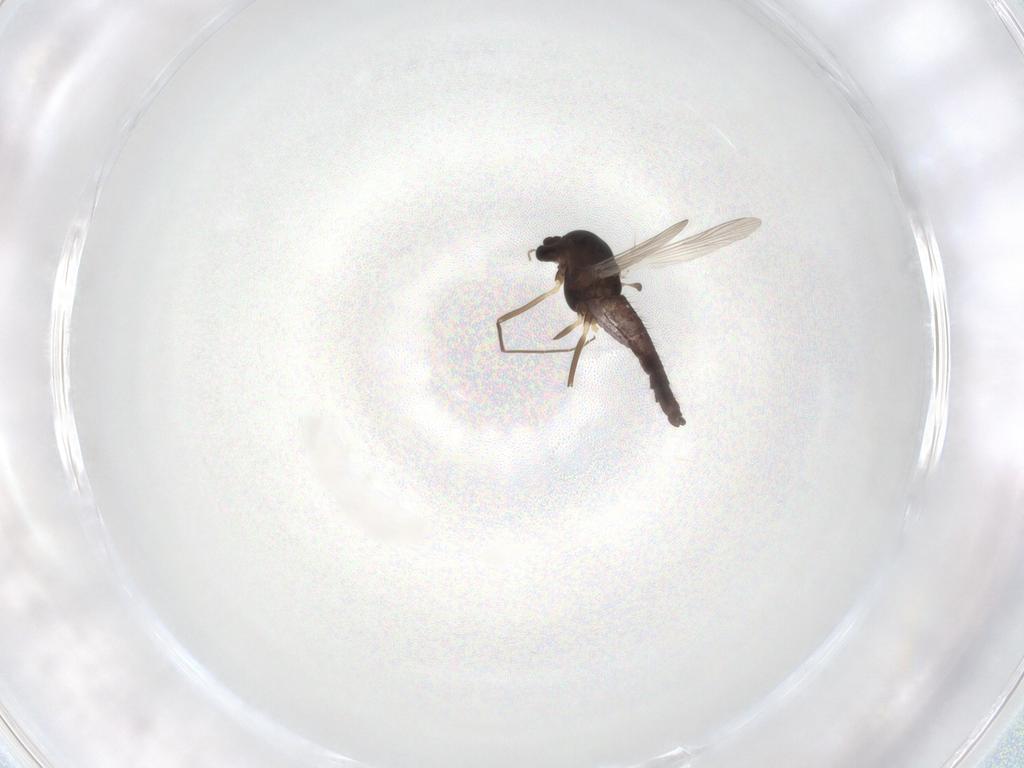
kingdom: Animalia
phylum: Arthropoda
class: Insecta
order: Diptera
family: Chironomidae
